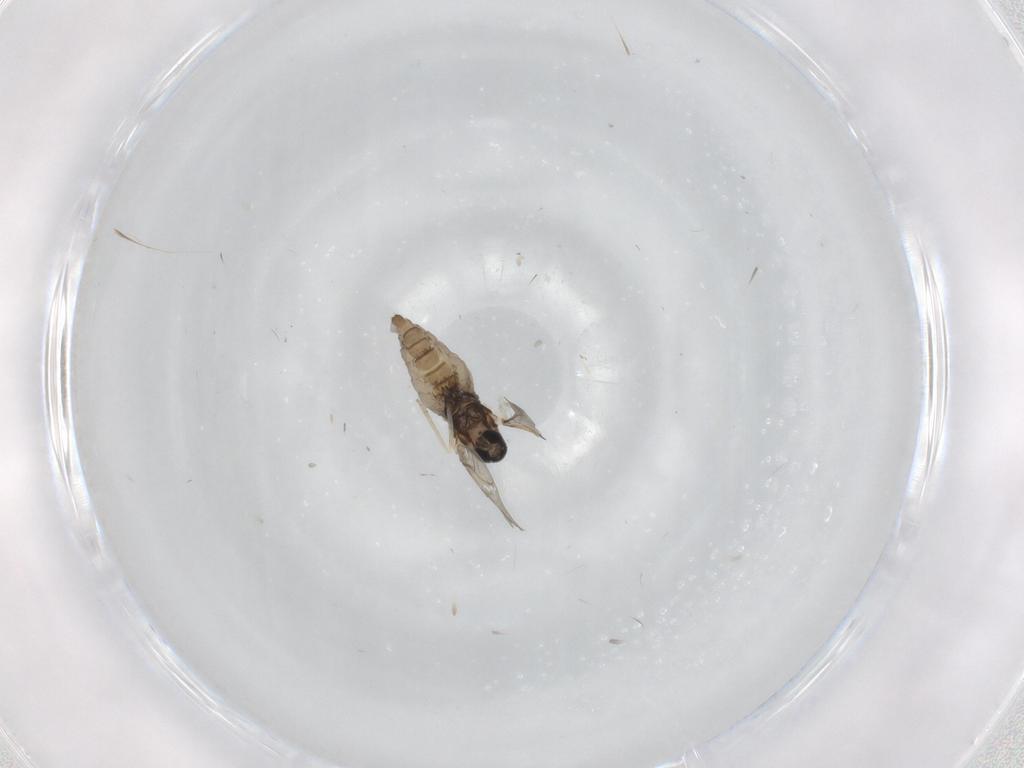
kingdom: Animalia
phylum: Arthropoda
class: Insecta
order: Diptera
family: Cecidomyiidae
